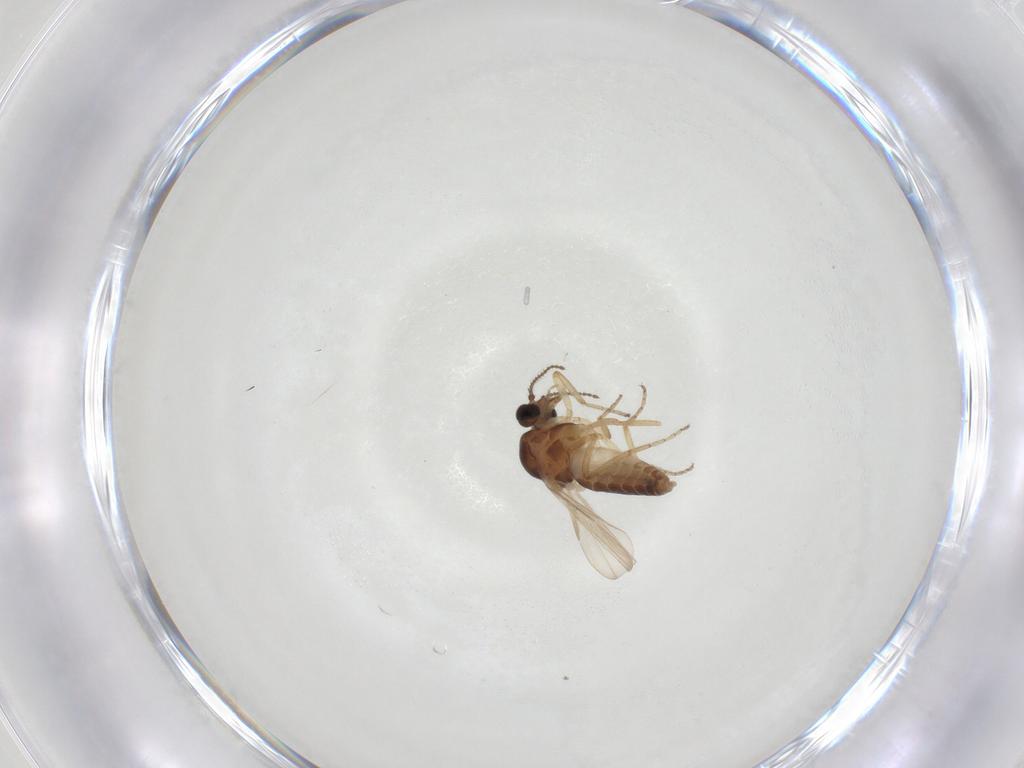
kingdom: Animalia
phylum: Arthropoda
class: Insecta
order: Diptera
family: Ceratopogonidae
